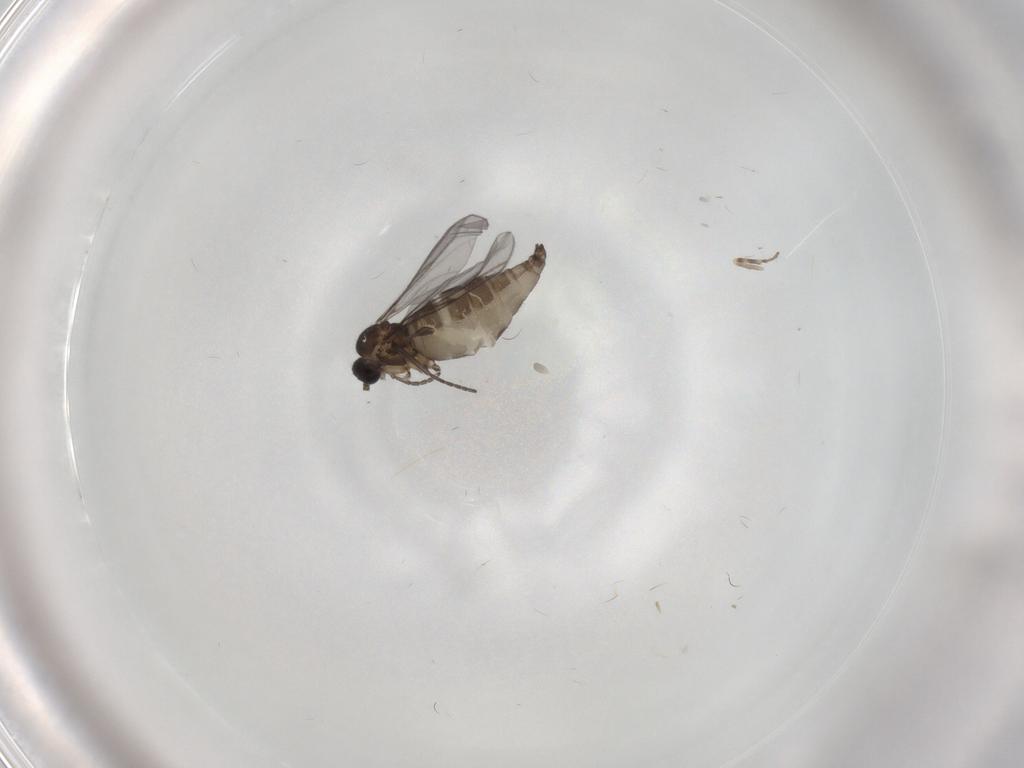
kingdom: Animalia
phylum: Arthropoda
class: Insecta
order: Diptera
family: Ceratopogonidae
